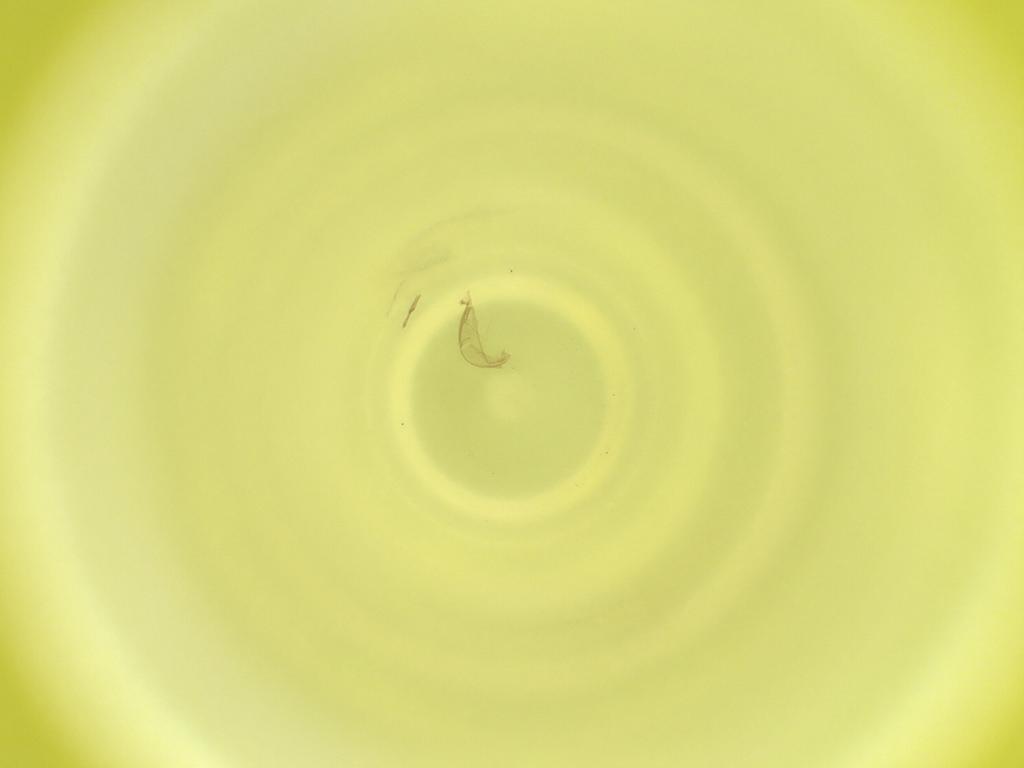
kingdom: Animalia
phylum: Arthropoda
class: Insecta
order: Diptera
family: Cecidomyiidae
